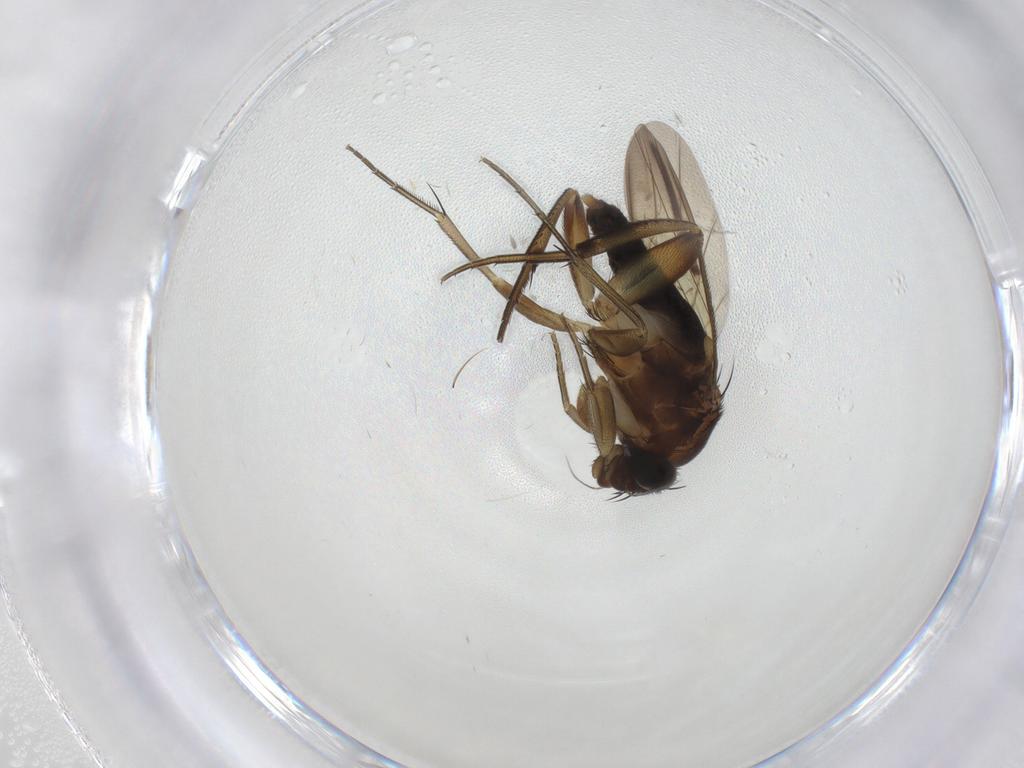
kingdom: Animalia
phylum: Arthropoda
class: Insecta
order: Diptera
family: Phoridae
